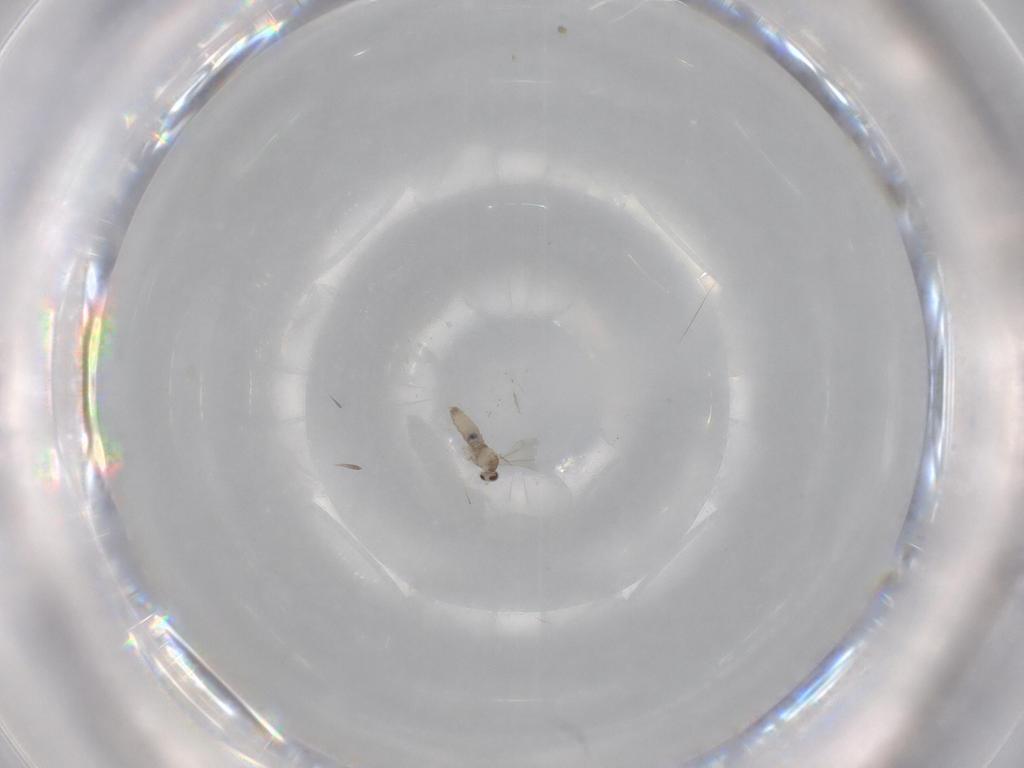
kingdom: Animalia
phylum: Arthropoda
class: Insecta
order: Diptera
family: Cecidomyiidae
